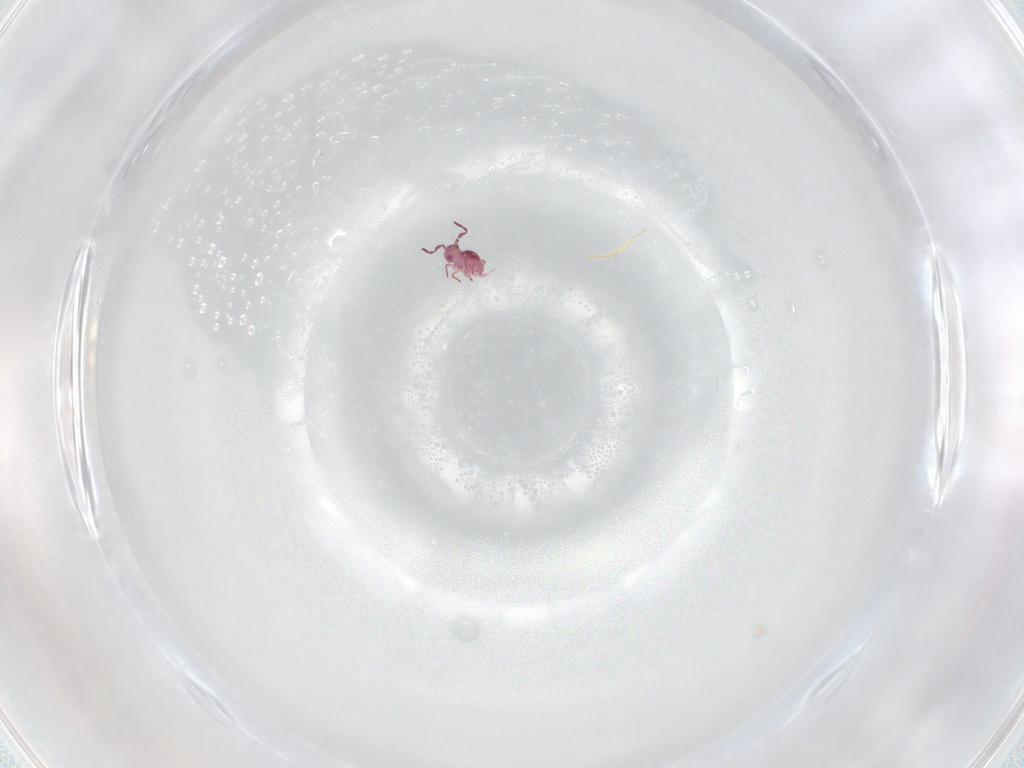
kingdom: Animalia
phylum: Arthropoda
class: Collembola
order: Symphypleona
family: Sminthurididae
